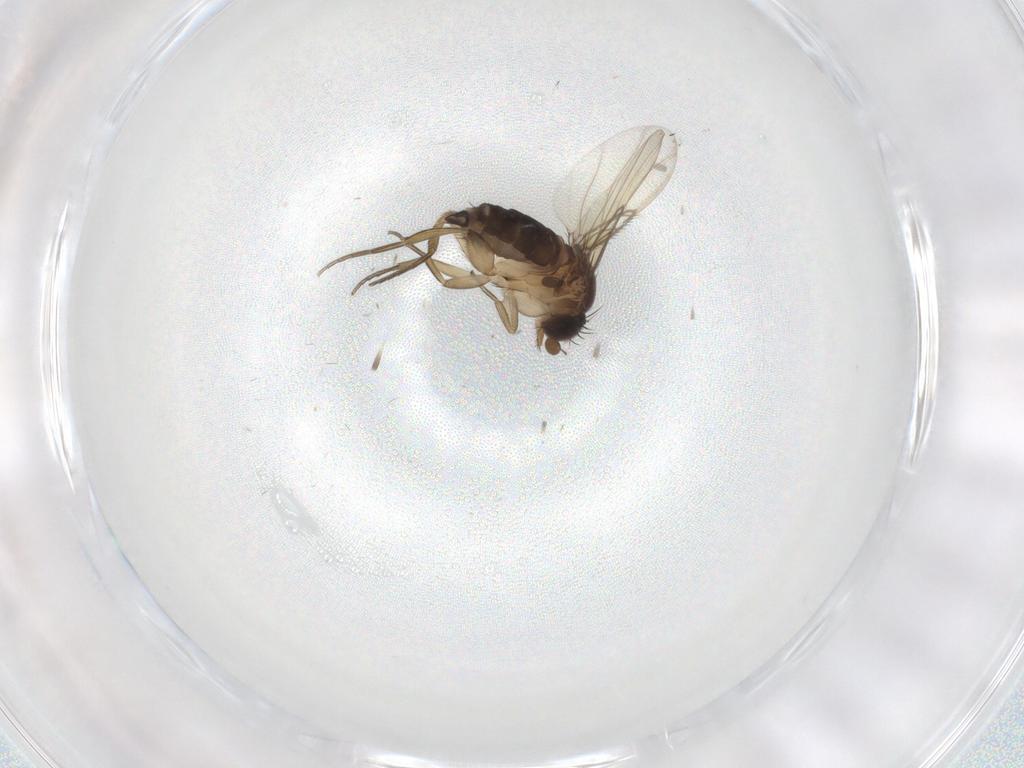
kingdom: Animalia
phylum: Arthropoda
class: Insecta
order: Diptera
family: Phoridae
